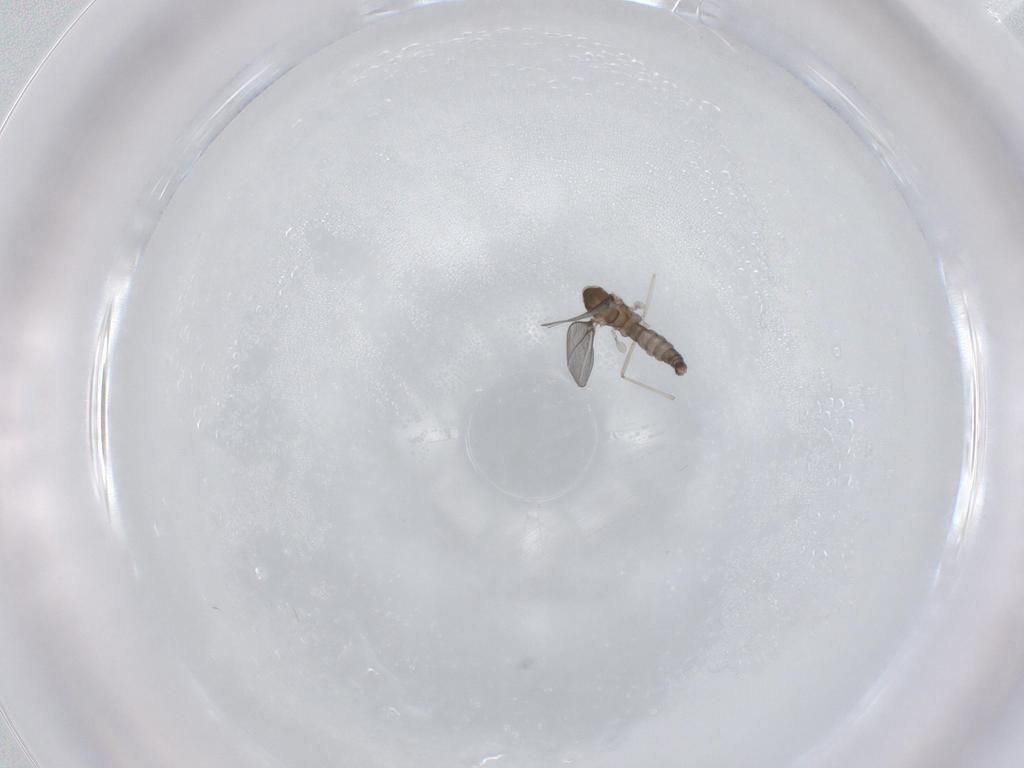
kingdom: Animalia
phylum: Arthropoda
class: Insecta
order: Diptera
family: Cecidomyiidae
